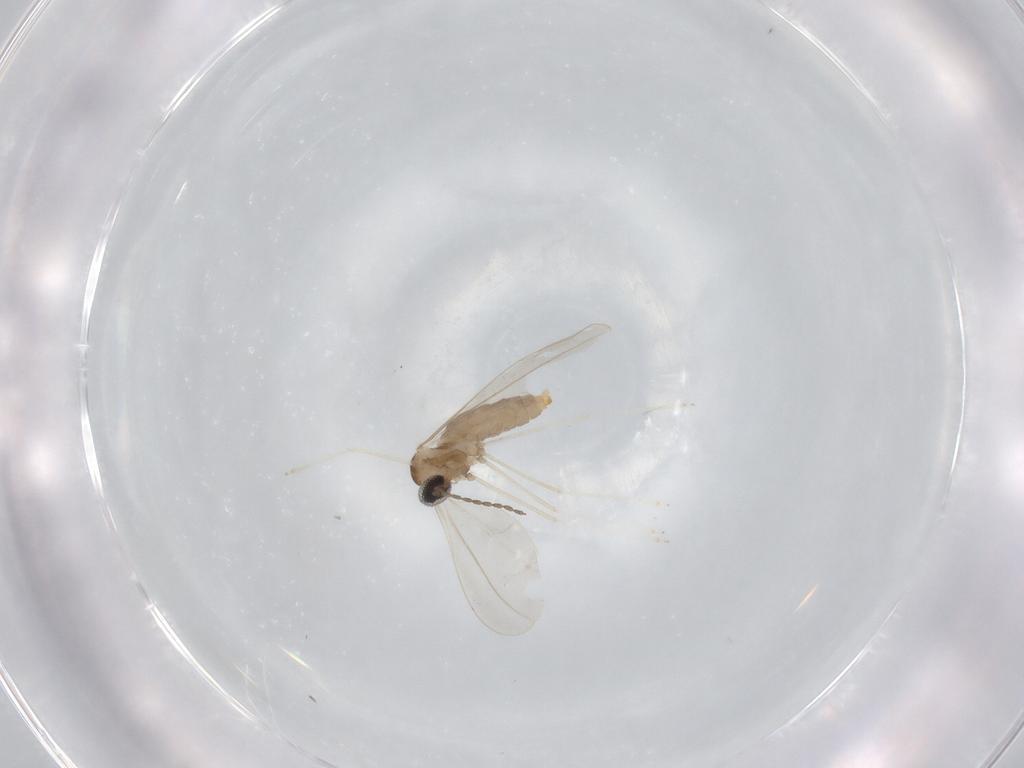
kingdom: Animalia
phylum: Arthropoda
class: Insecta
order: Diptera
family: Cecidomyiidae
